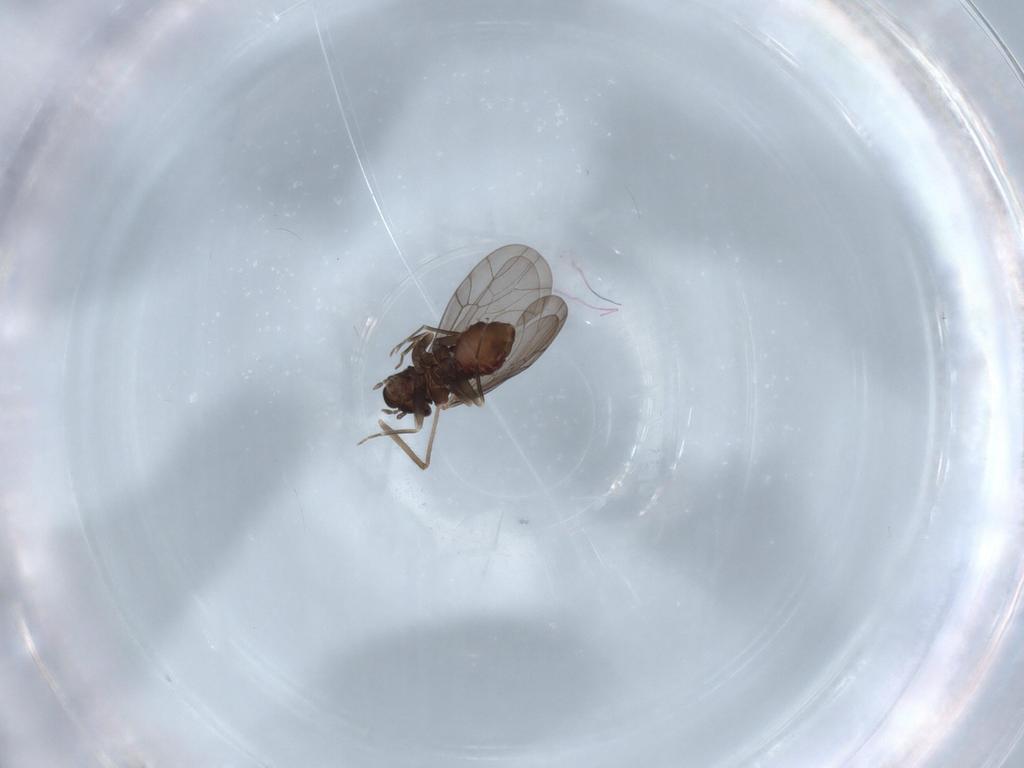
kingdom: Animalia
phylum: Arthropoda
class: Insecta
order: Psocodea
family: Lepidopsocidae
